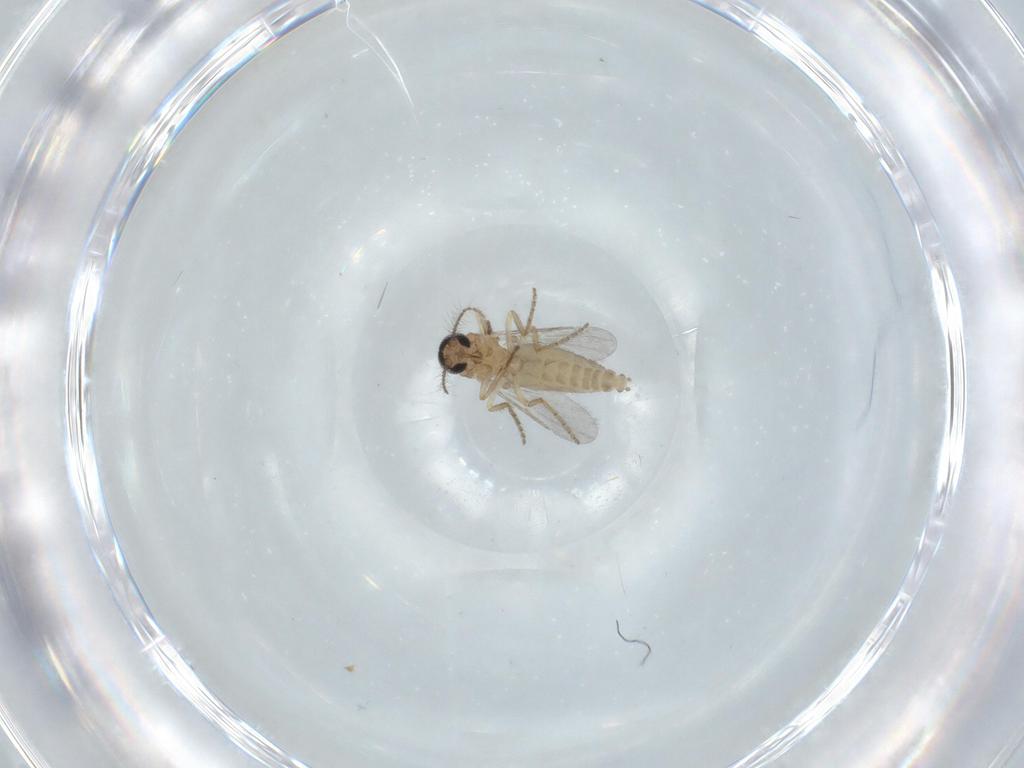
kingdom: Animalia
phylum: Arthropoda
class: Insecta
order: Diptera
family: Ceratopogonidae
